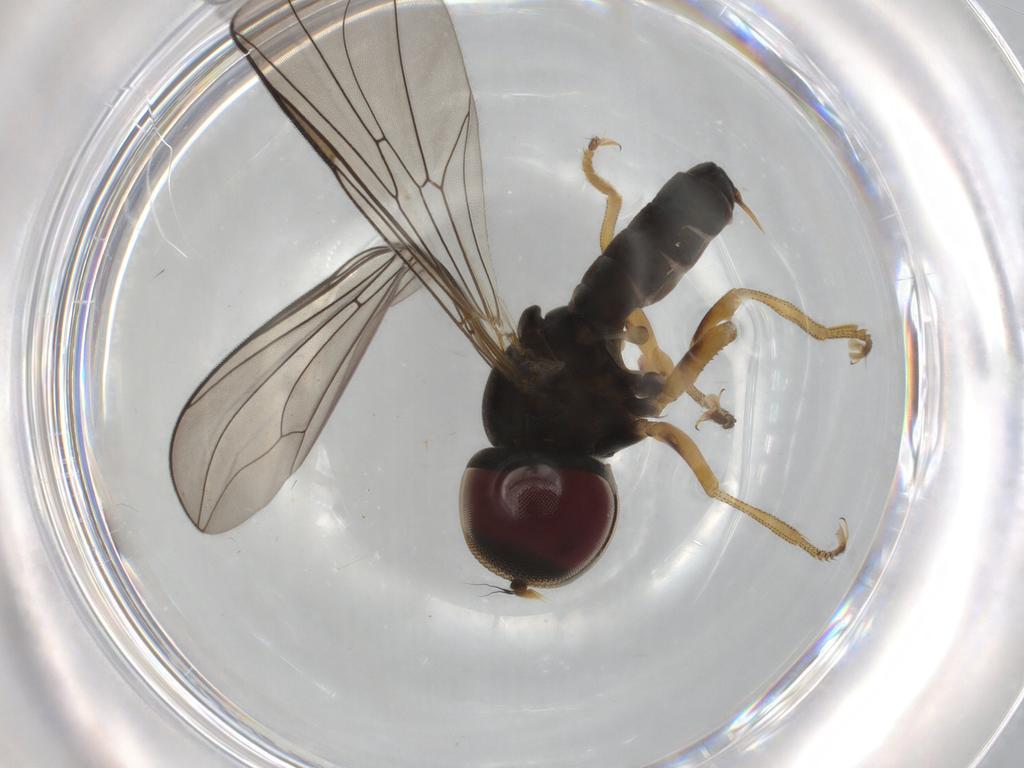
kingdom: Animalia
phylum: Arthropoda
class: Insecta
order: Diptera
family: Pipunculidae
